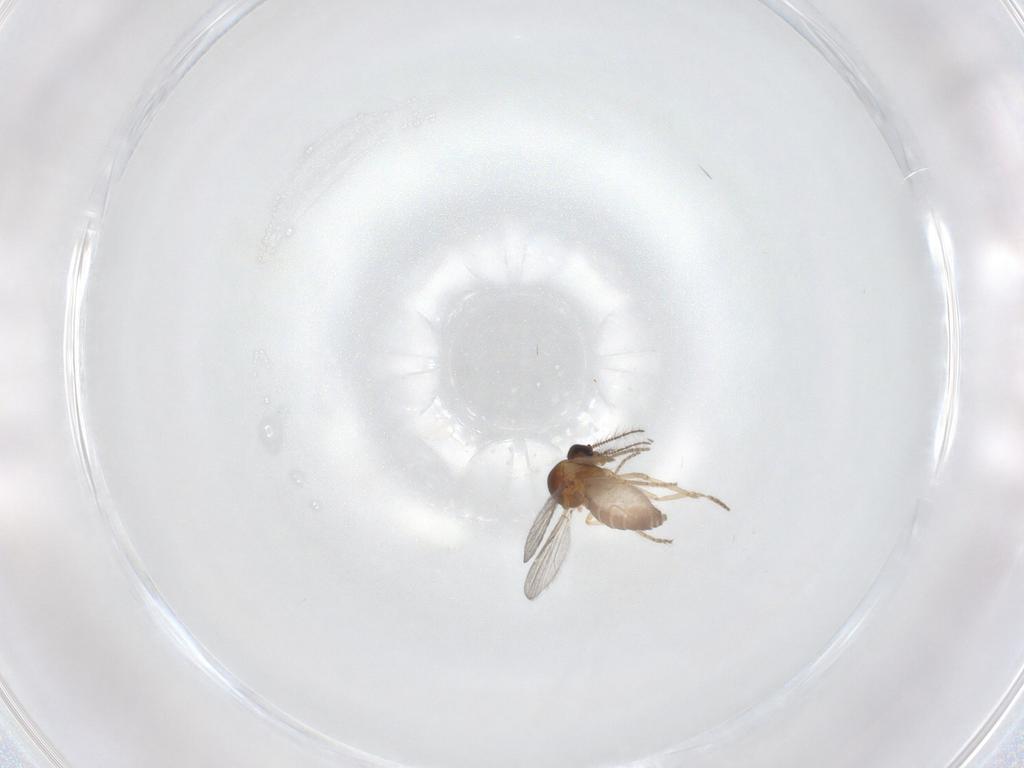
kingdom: Animalia
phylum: Arthropoda
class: Insecta
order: Diptera
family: Ceratopogonidae
